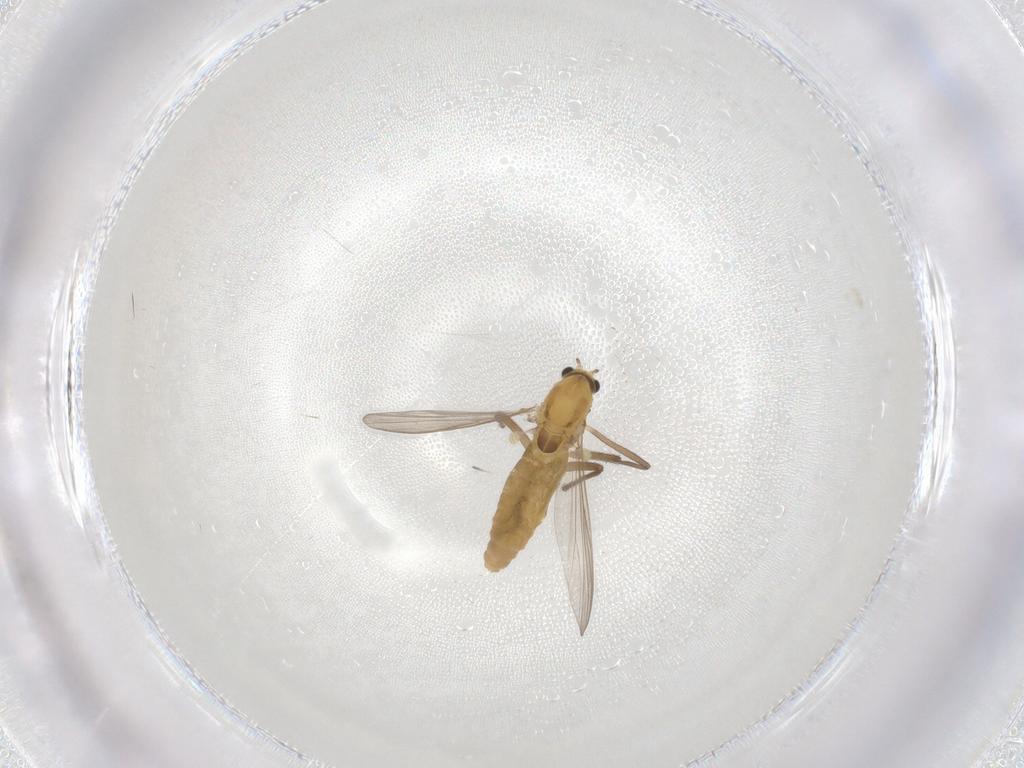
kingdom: Animalia
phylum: Arthropoda
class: Insecta
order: Diptera
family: Chironomidae
